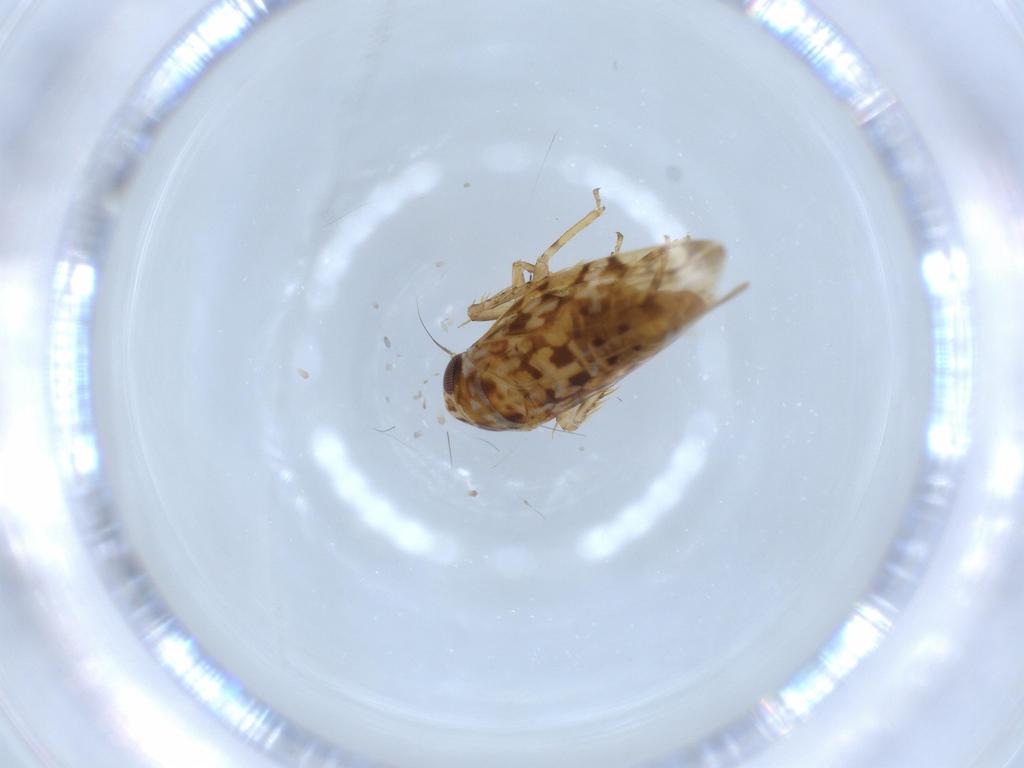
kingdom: Animalia
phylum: Arthropoda
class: Insecta
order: Hemiptera
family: Cicadellidae
